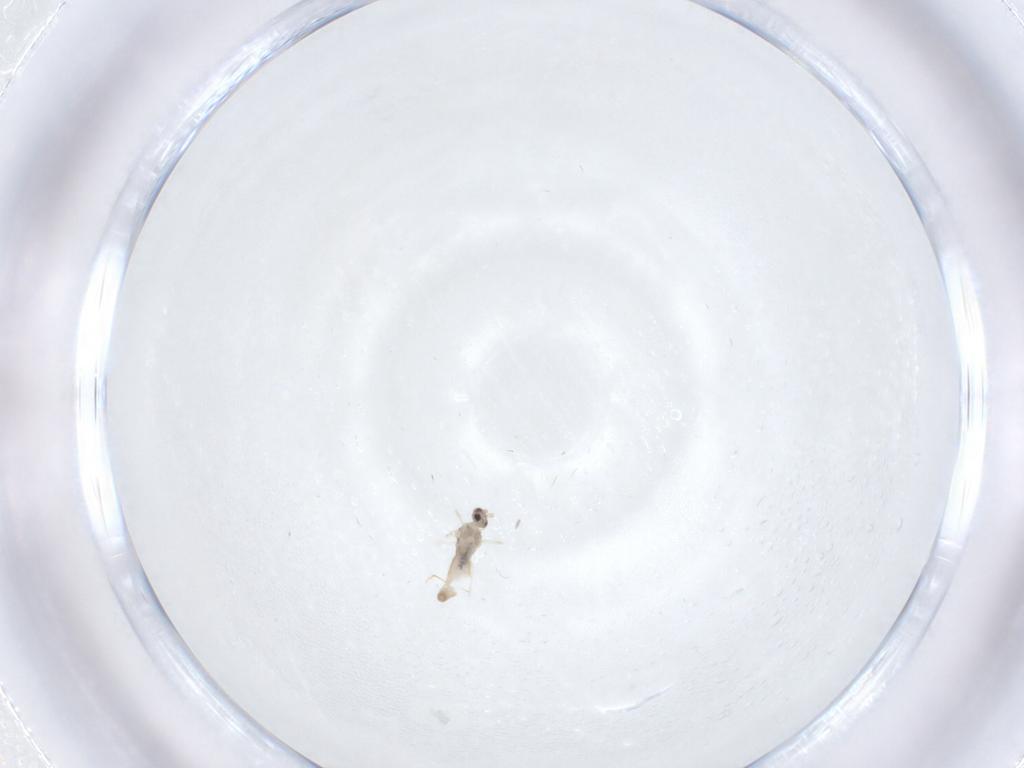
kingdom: Animalia
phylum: Arthropoda
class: Insecta
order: Diptera
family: Cecidomyiidae
